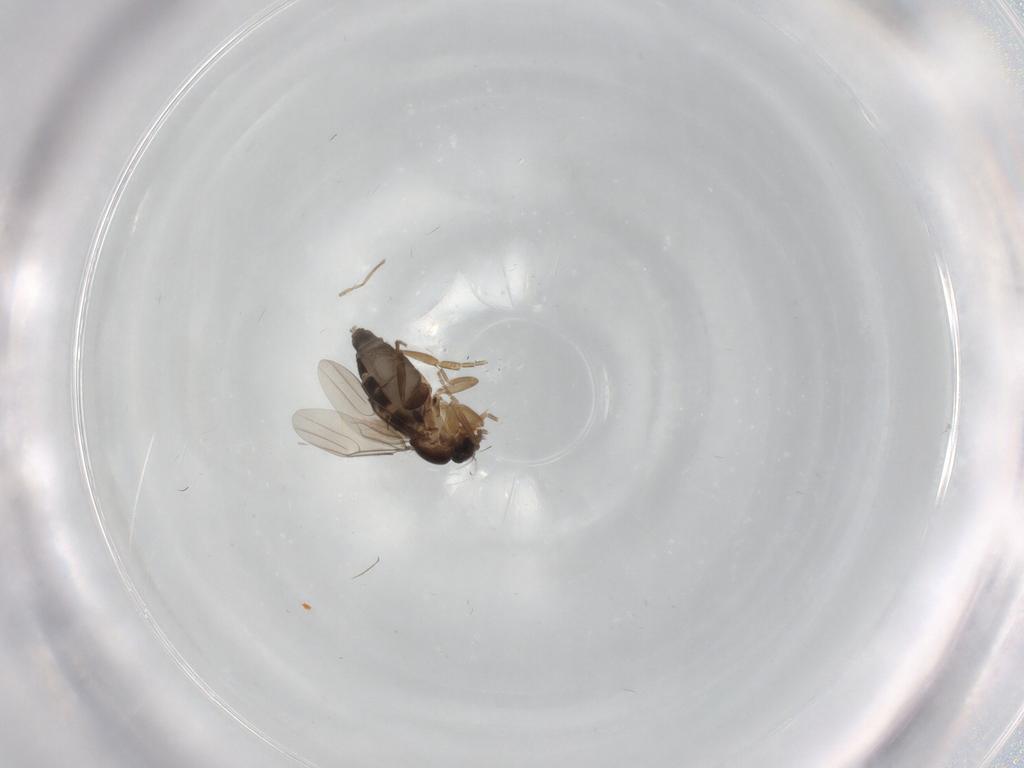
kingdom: Animalia
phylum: Arthropoda
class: Insecta
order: Diptera
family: Phoridae
